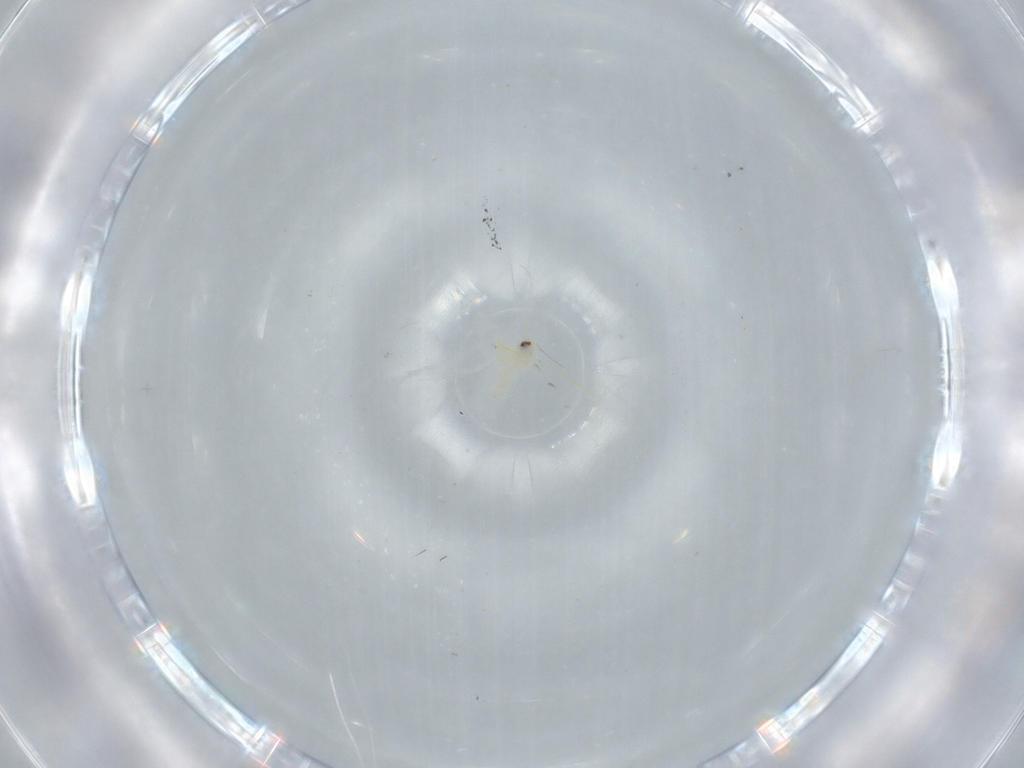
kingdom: Animalia
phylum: Arthropoda
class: Insecta
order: Hemiptera
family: Aleyrodidae
